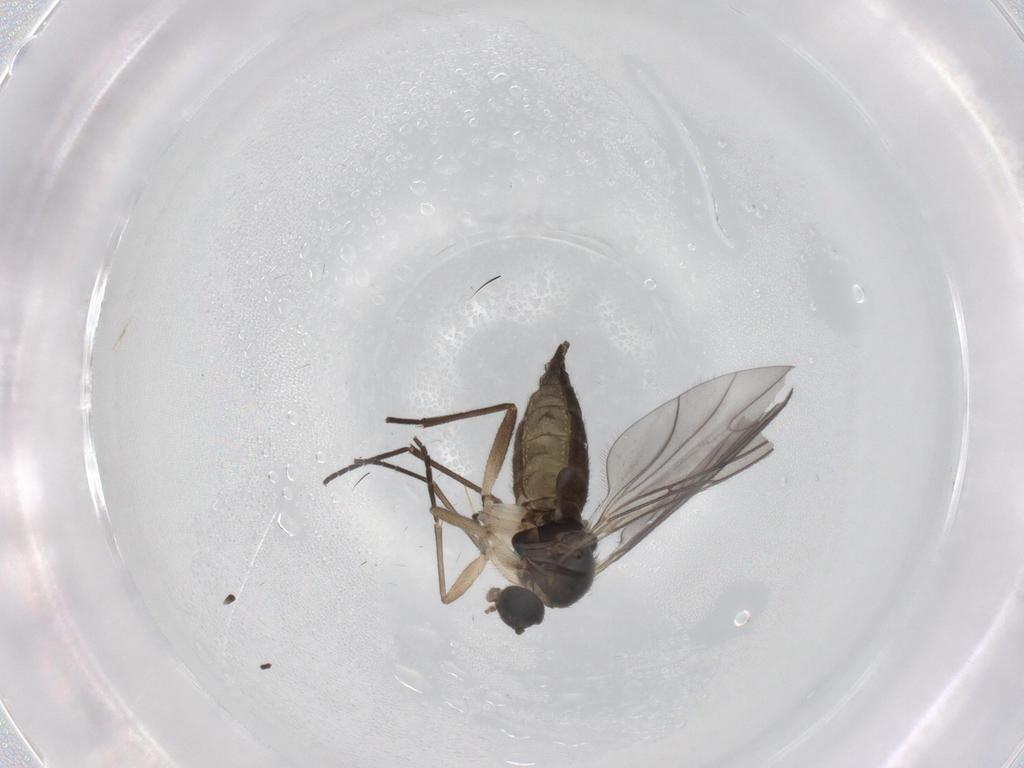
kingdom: Animalia
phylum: Arthropoda
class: Insecta
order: Diptera
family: Sciaridae
